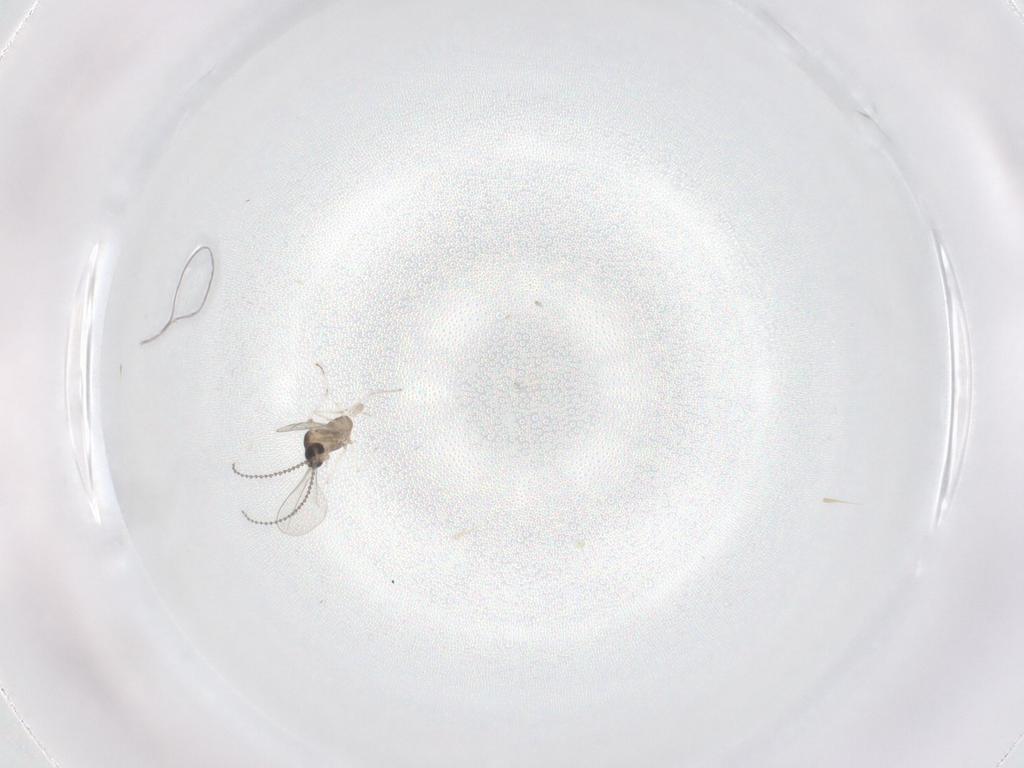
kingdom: Animalia
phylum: Arthropoda
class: Insecta
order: Diptera
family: Cecidomyiidae
